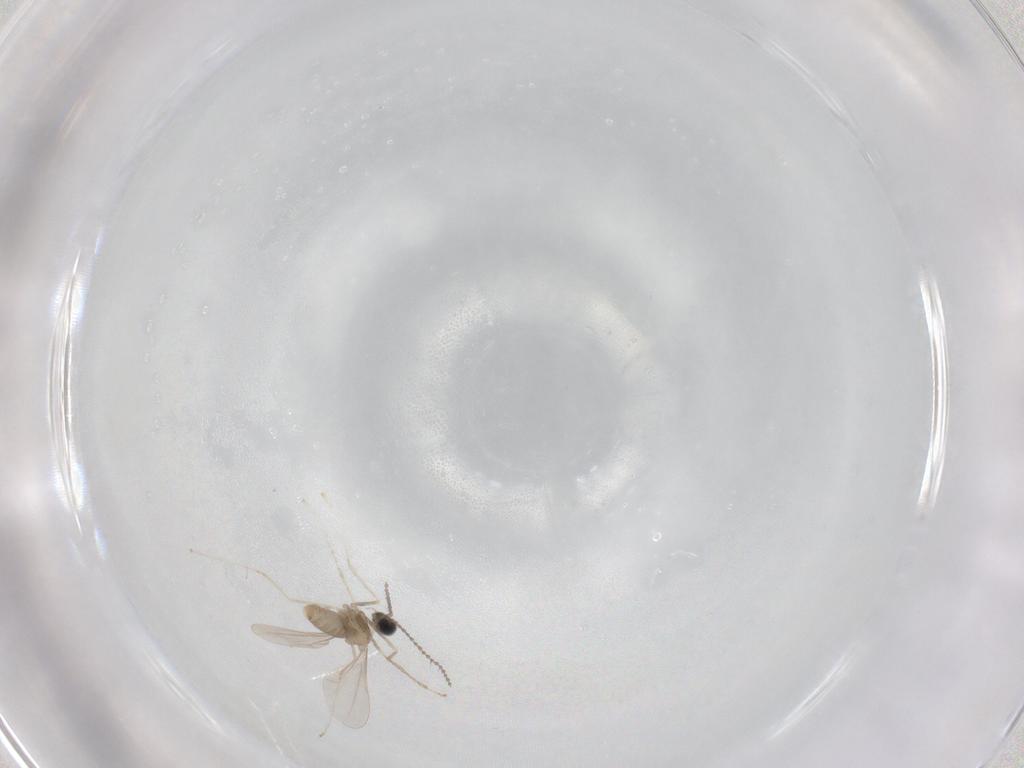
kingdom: Animalia
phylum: Arthropoda
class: Insecta
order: Diptera
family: Cecidomyiidae
